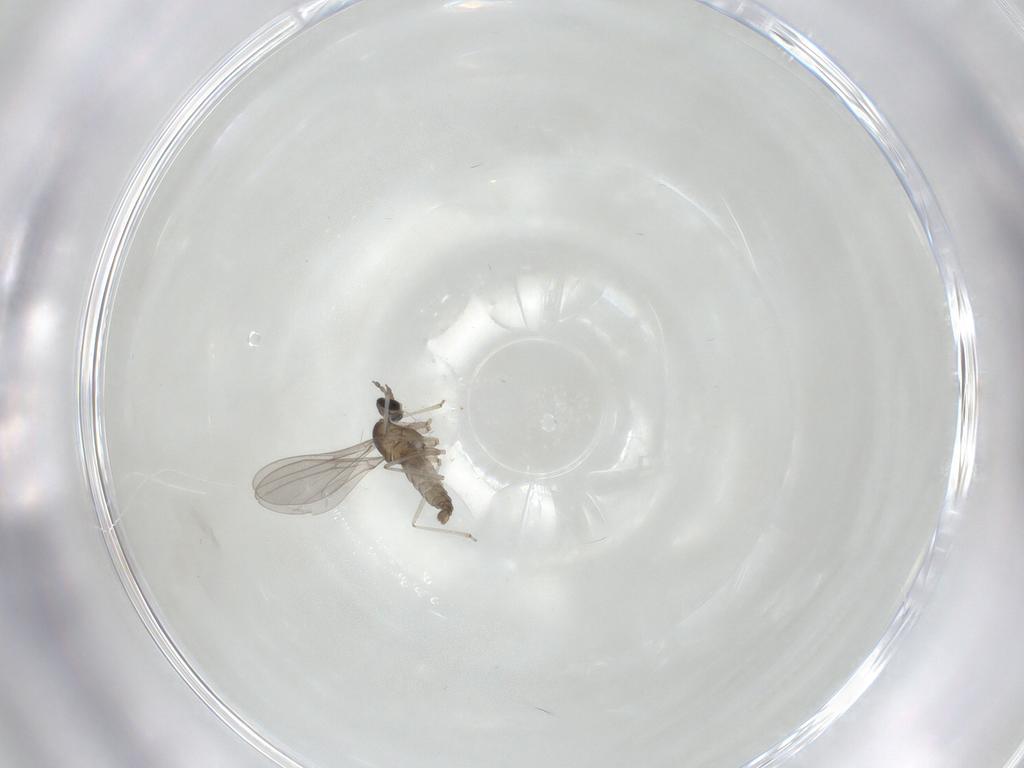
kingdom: Animalia
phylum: Arthropoda
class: Insecta
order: Diptera
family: Cecidomyiidae
